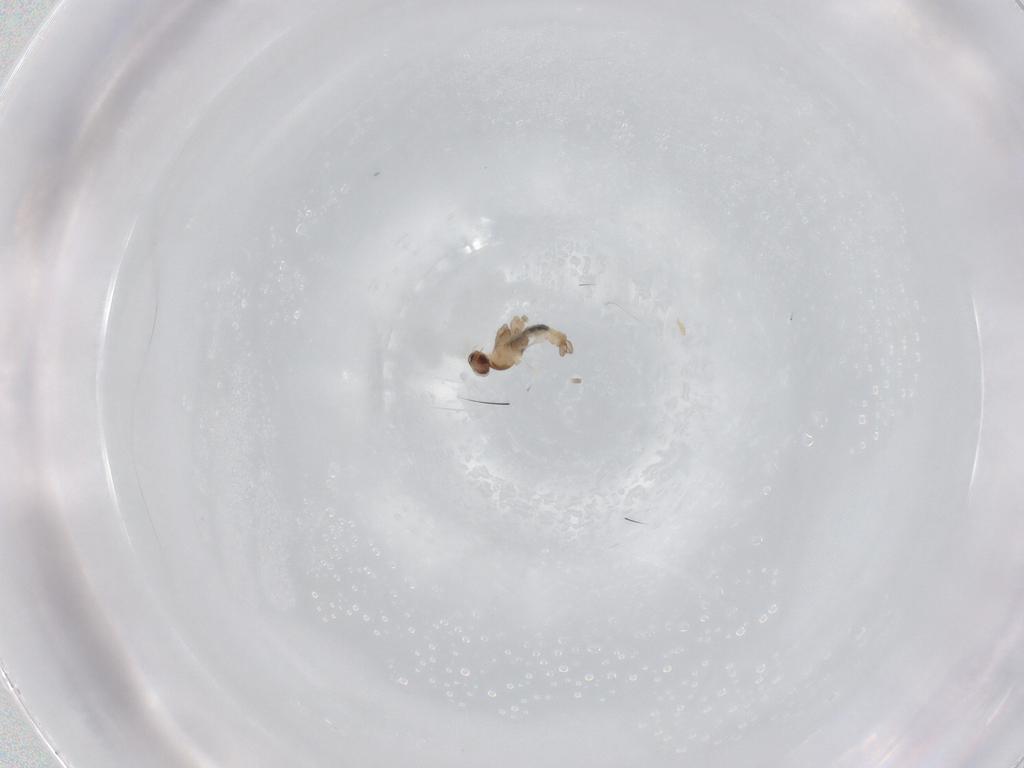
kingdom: Animalia
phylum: Arthropoda
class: Insecta
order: Diptera
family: Cecidomyiidae
